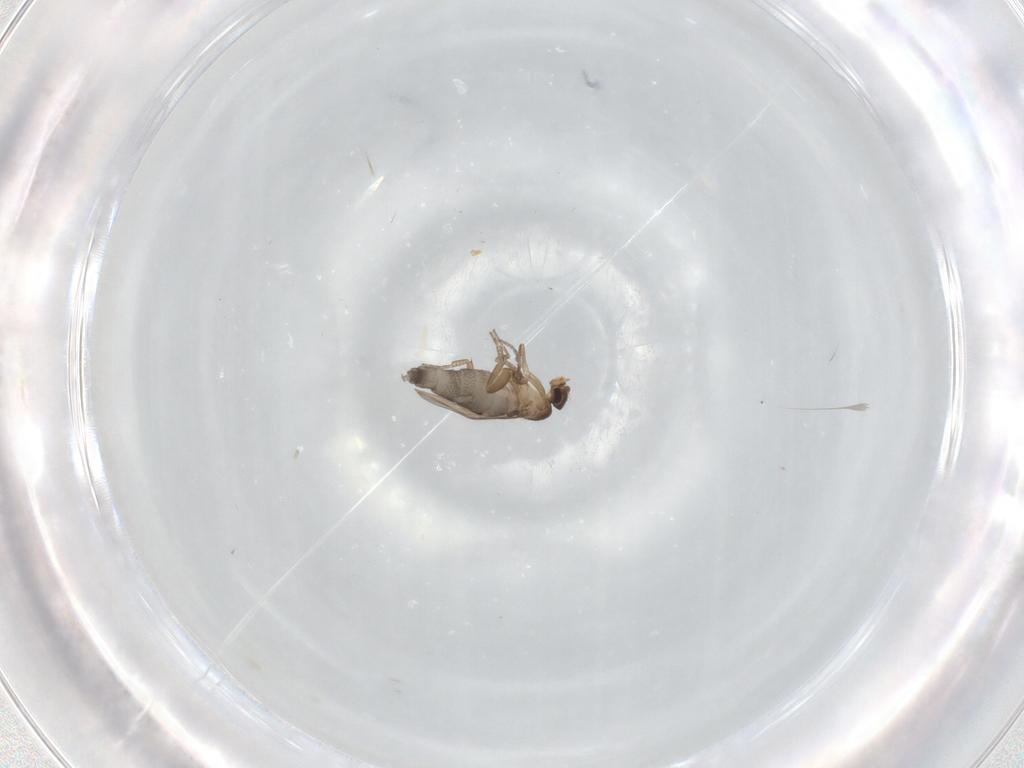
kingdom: Animalia
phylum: Arthropoda
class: Insecta
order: Diptera
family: Phoridae
